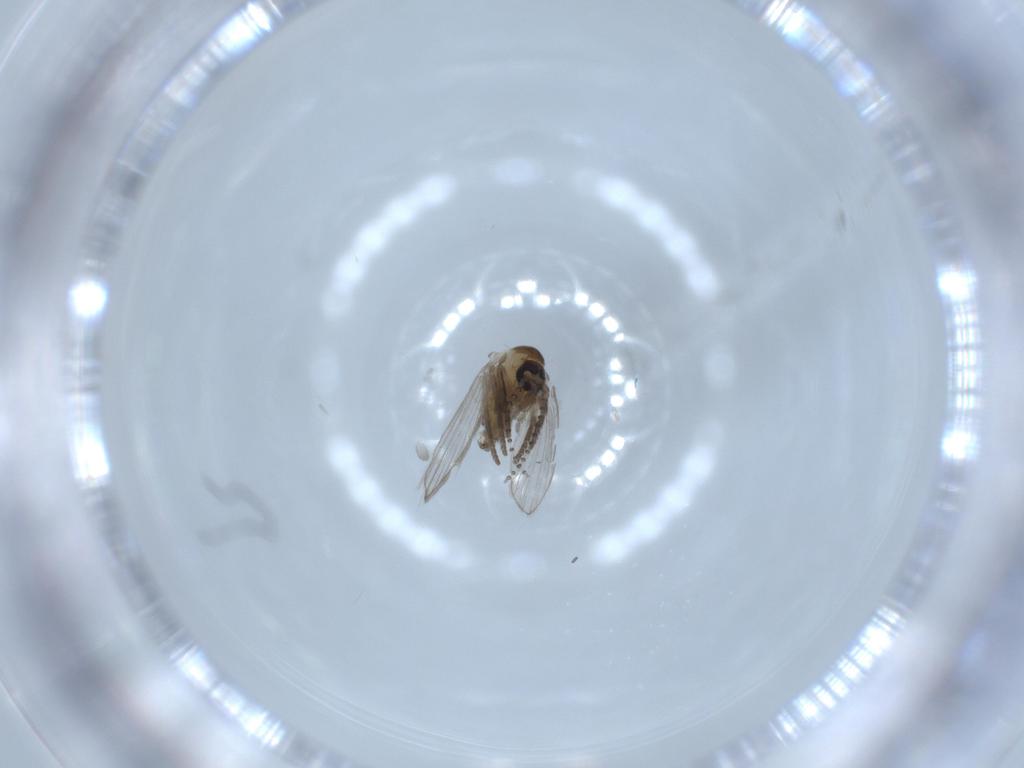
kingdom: Animalia
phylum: Arthropoda
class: Insecta
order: Diptera
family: Psychodidae
